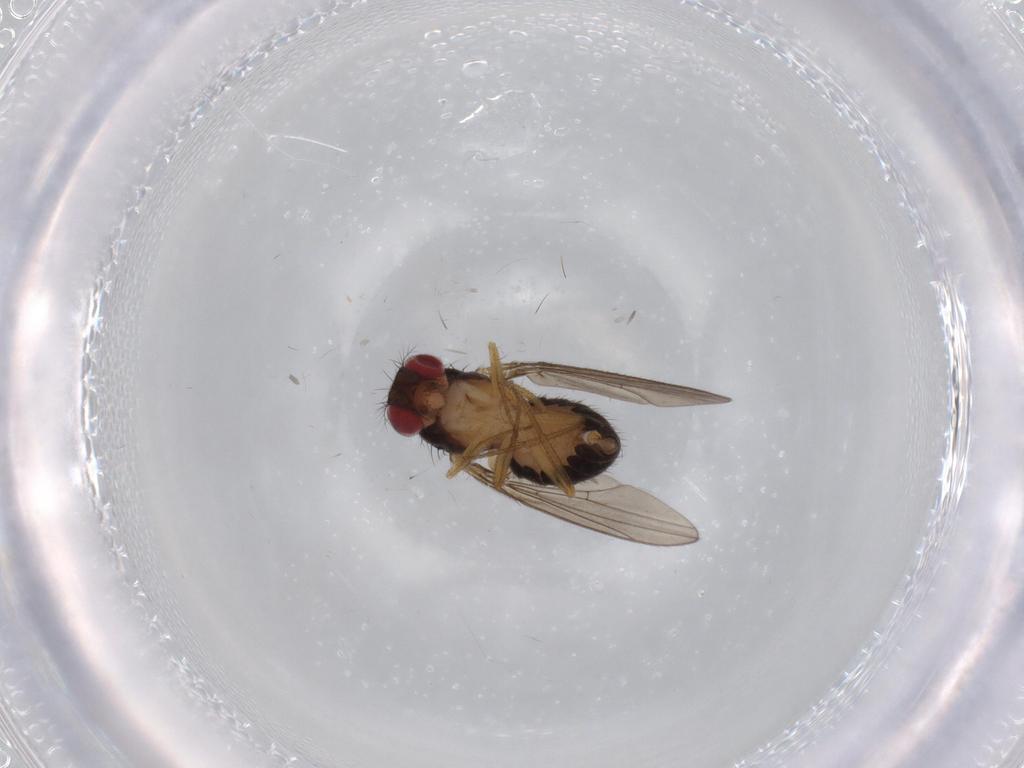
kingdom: Animalia
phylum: Arthropoda
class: Insecta
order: Diptera
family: Drosophilidae
